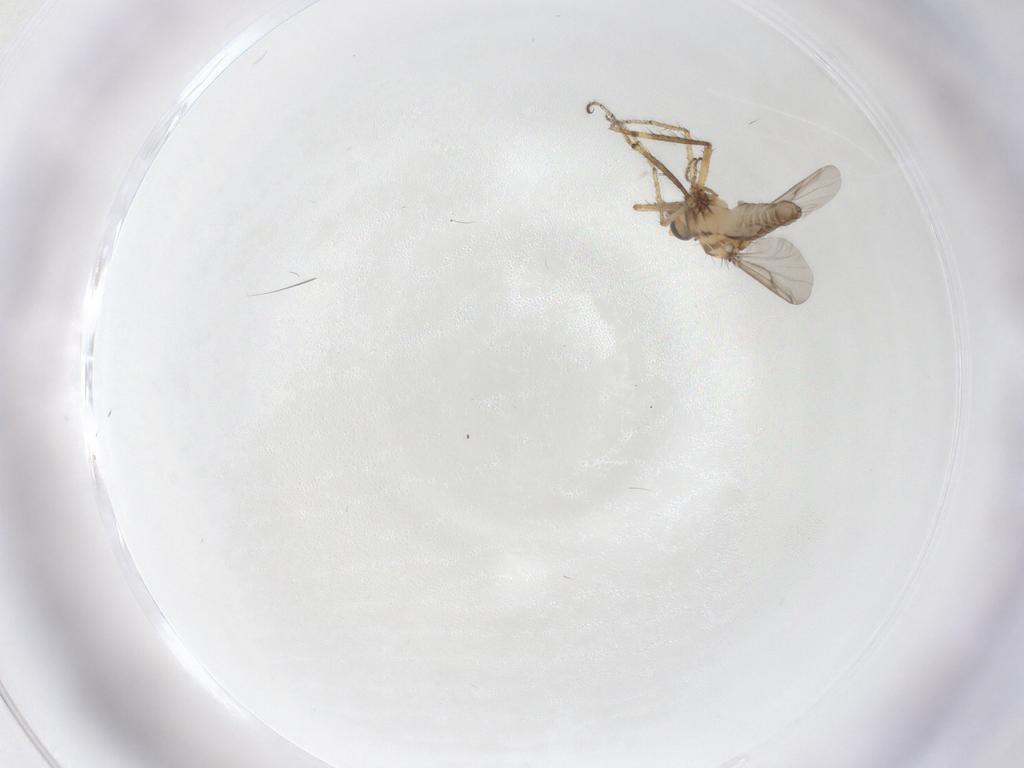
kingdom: Animalia
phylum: Arthropoda
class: Insecta
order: Diptera
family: Ceratopogonidae
